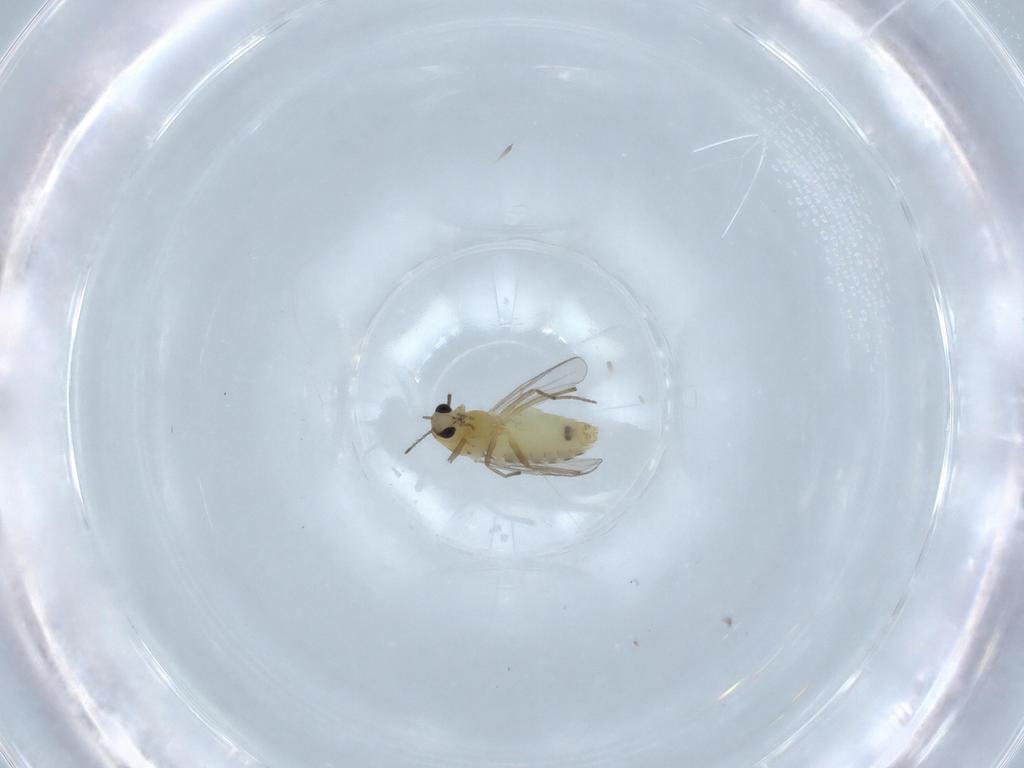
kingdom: Animalia
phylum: Arthropoda
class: Insecta
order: Diptera
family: Chironomidae
